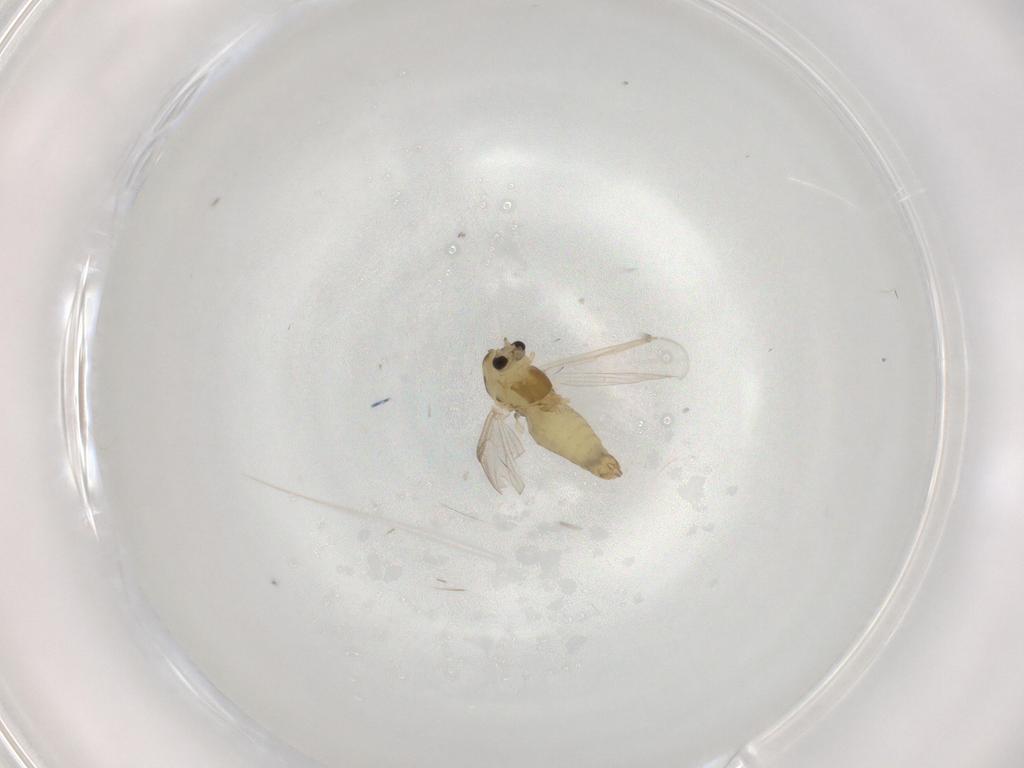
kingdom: Animalia
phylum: Arthropoda
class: Insecta
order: Diptera
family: Chironomidae
